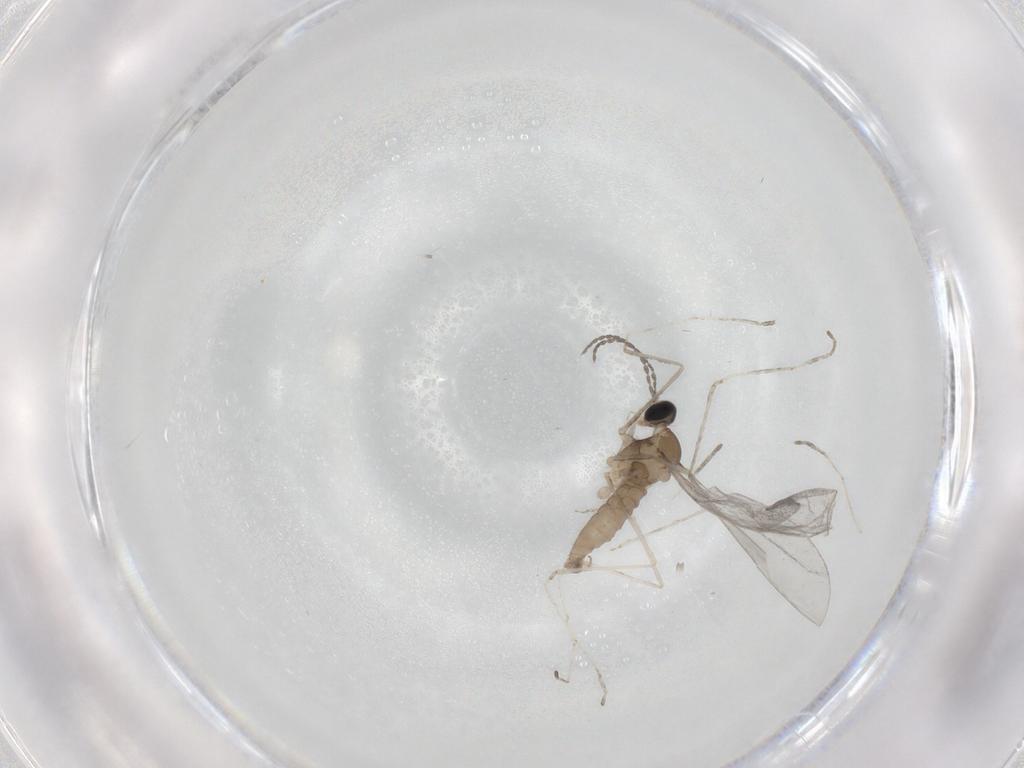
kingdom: Animalia
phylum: Arthropoda
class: Insecta
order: Diptera
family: Cecidomyiidae
